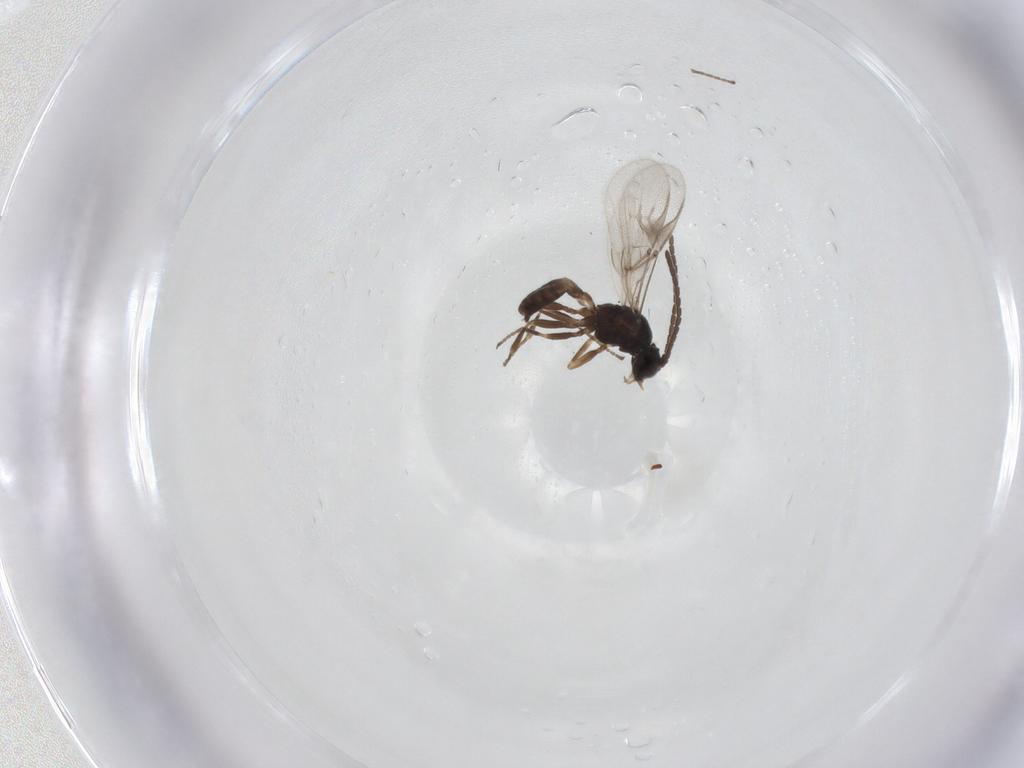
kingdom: Animalia
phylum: Arthropoda
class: Insecta
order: Hymenoptera
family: Braconidae
